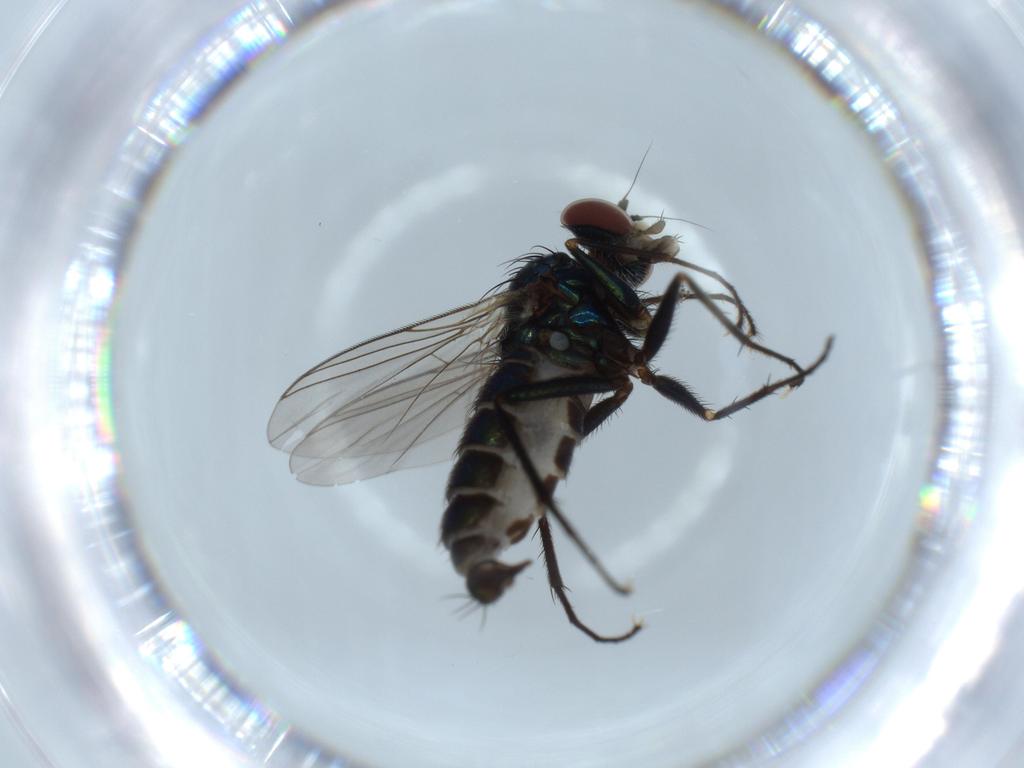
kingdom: Animalia
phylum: Arthropoda
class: Insecta
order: Diptera
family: Dolichopodidae
